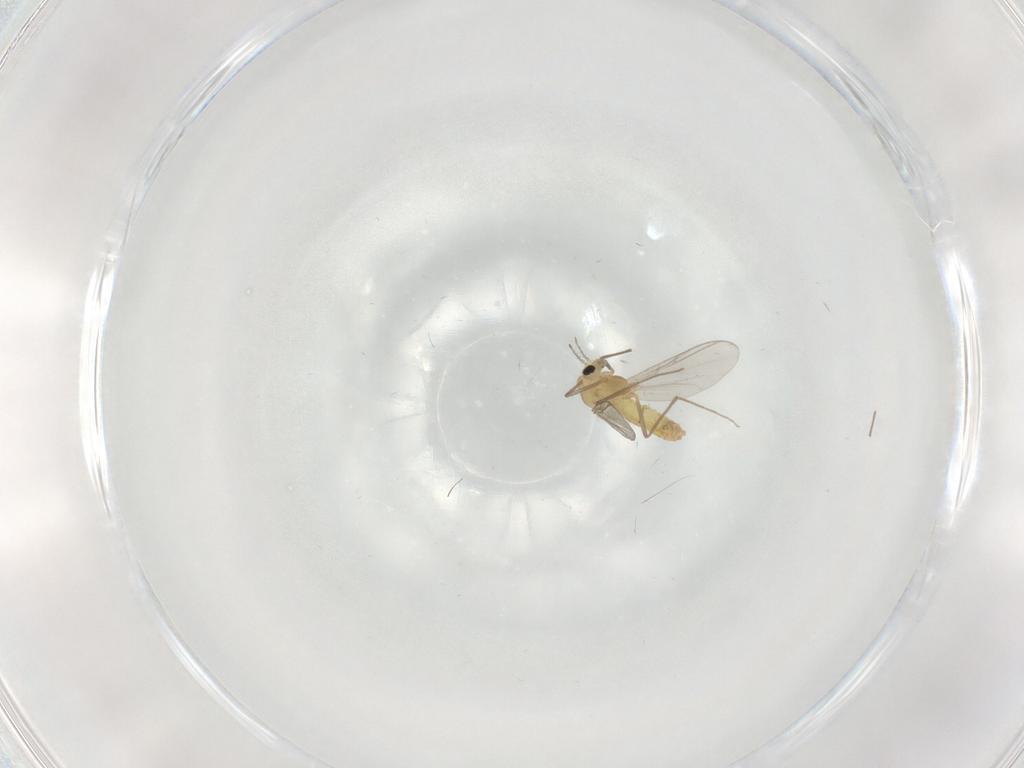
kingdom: Animalia
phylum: Arthropoda
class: Insecta
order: Diptera
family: Chironomidae
